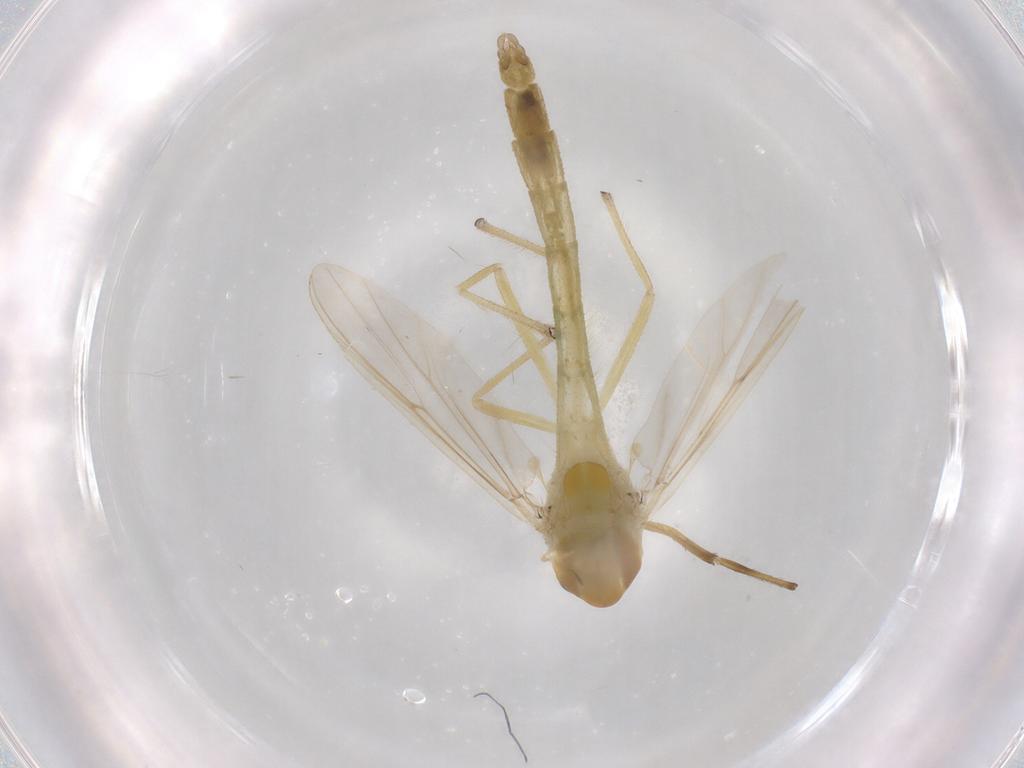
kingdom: Animalia
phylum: Arthropoda
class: Insecta
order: Diptera
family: Chironomidae
